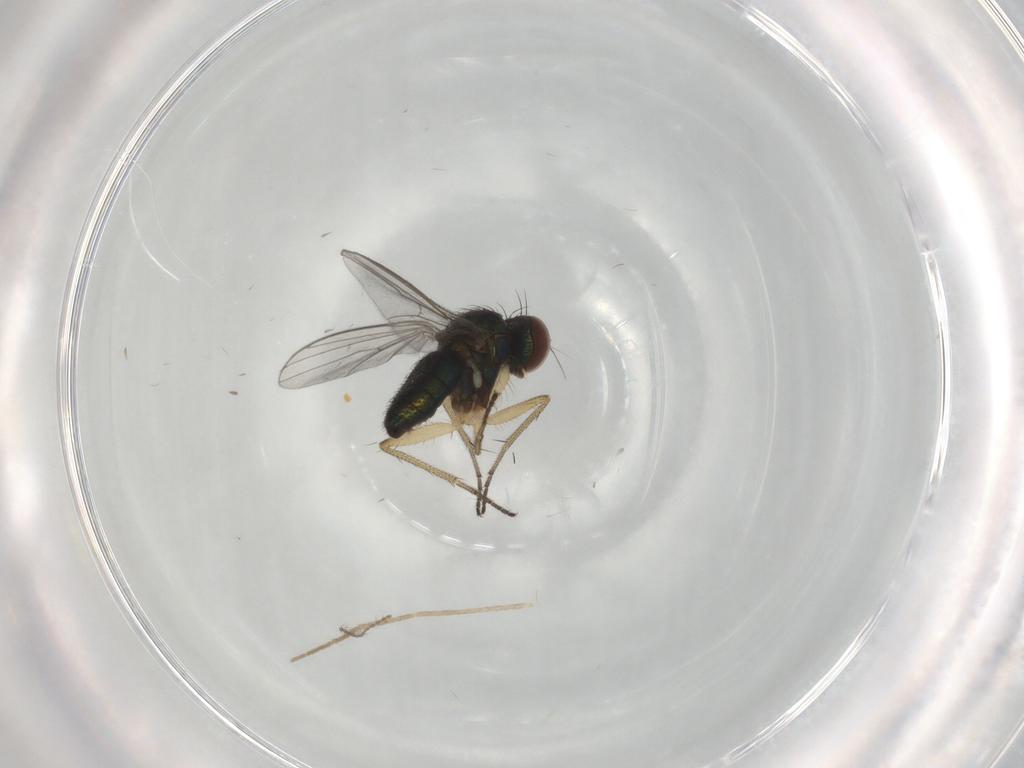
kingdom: Animalia
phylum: Arthropoda
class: Insecta
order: Diptera
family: Ceratopogonidae
